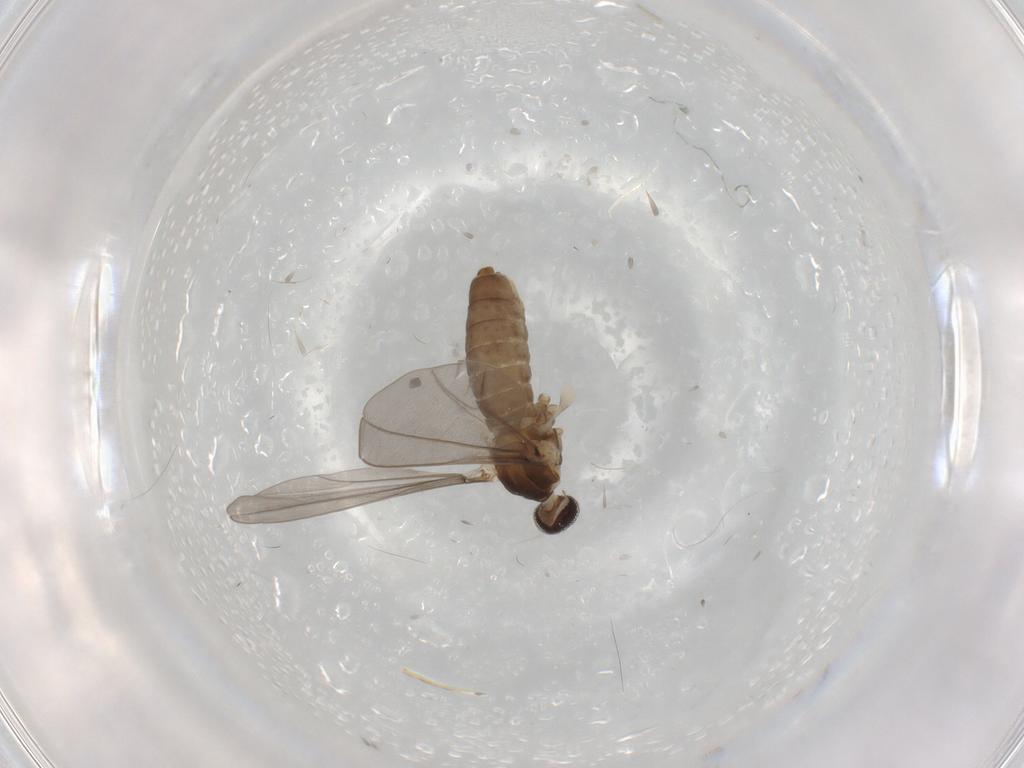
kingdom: Animalia
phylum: Arthropoda
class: Insecta
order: Diptera
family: Cecidomyiidae
